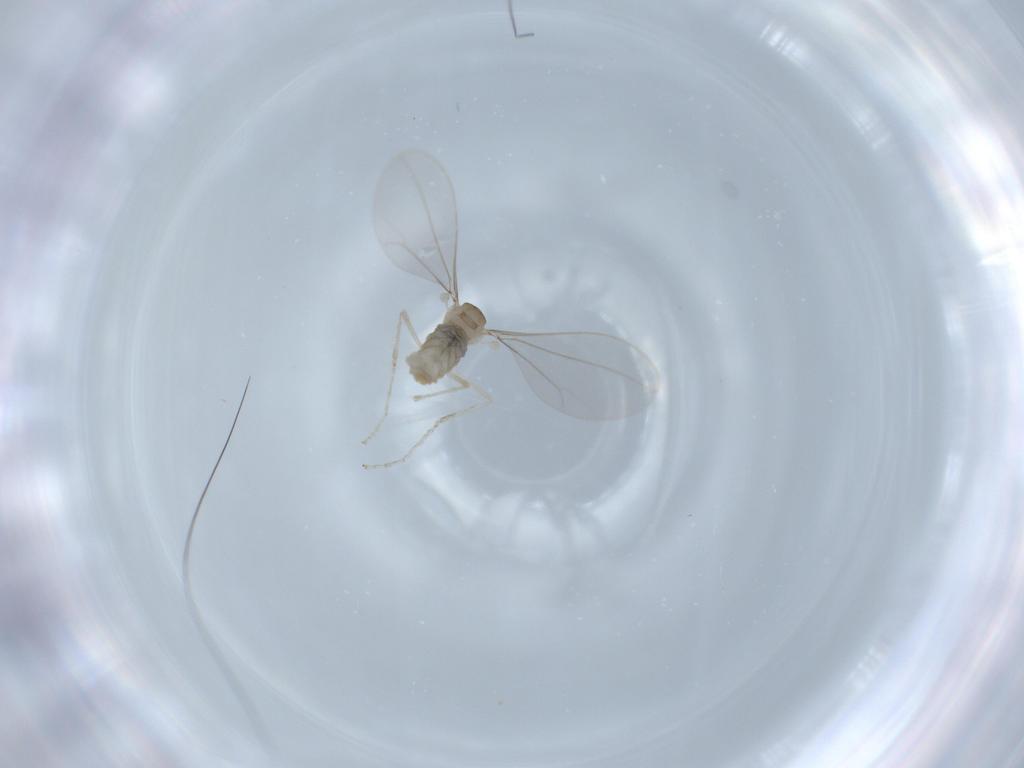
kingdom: Animalia
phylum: Arthropoda
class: Insecta
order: Diptera
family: Cecidomyiidae
